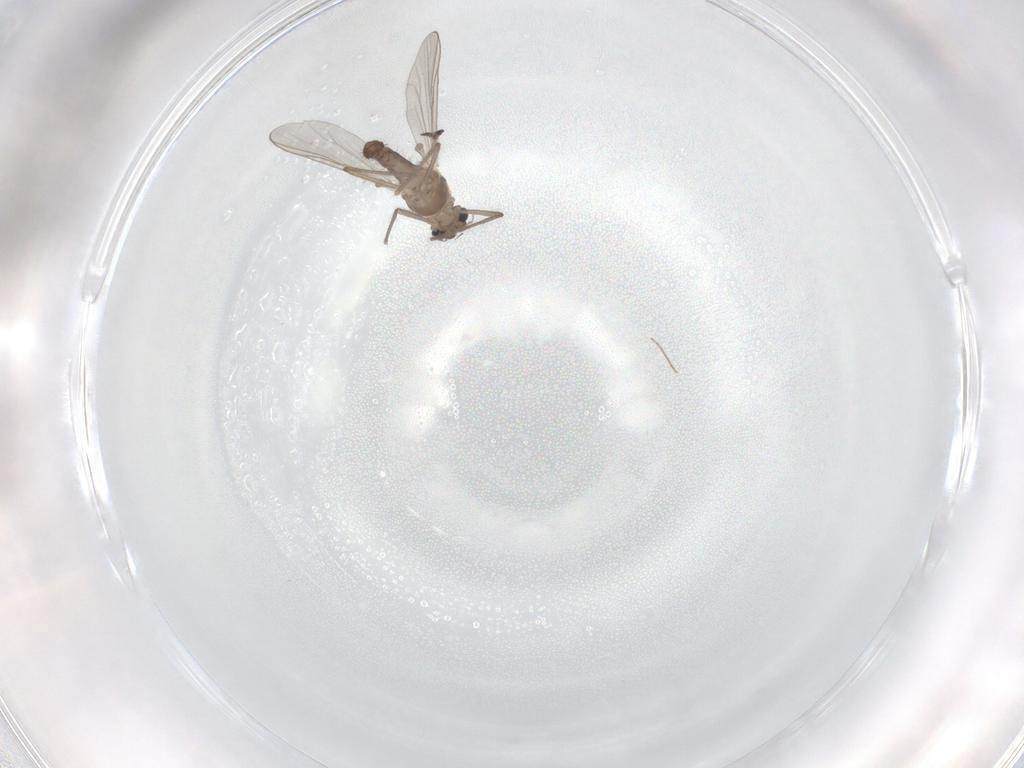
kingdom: Animalia
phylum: Arthropoda
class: Insecta
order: Diptera
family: Chironomidae
